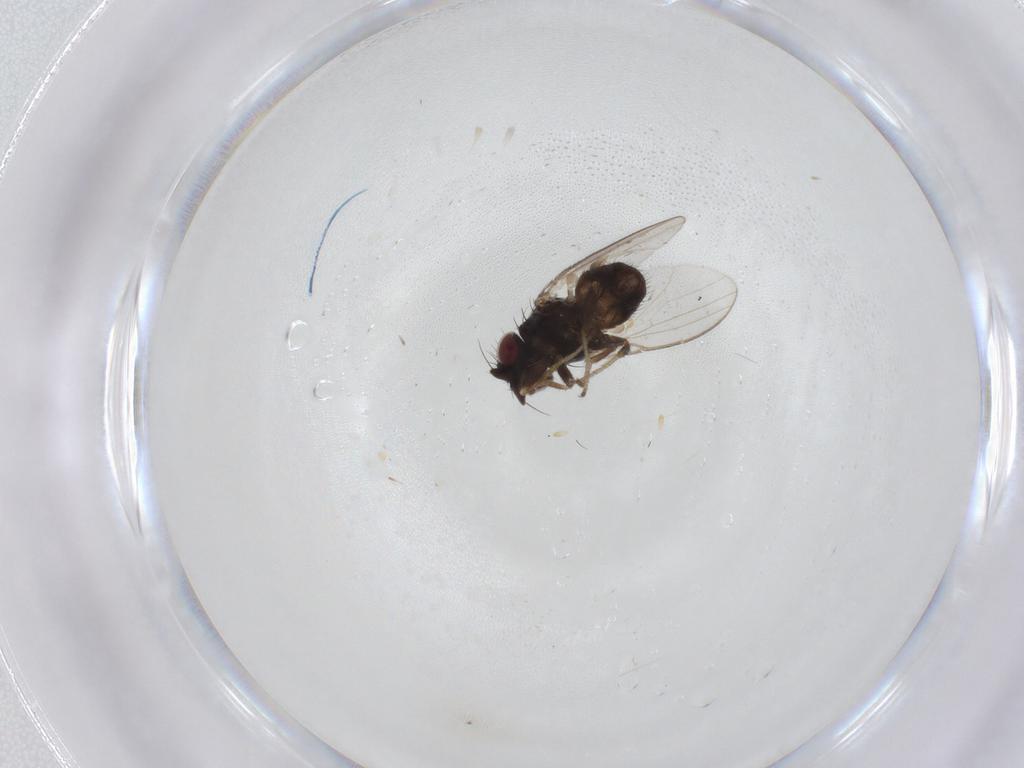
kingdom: Animalia
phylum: Arthropoda
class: Insecta
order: Diptera
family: Milichiidae
